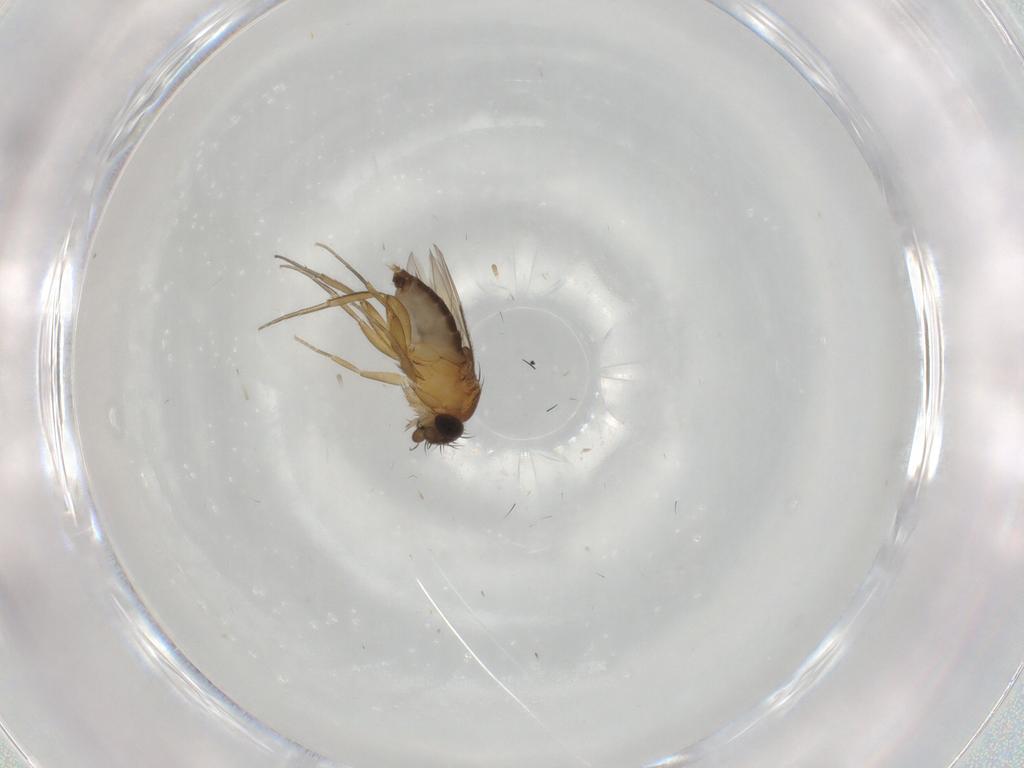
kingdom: Animalia
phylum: Arthropoda
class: Insecta
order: Diptera
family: Phoridae
